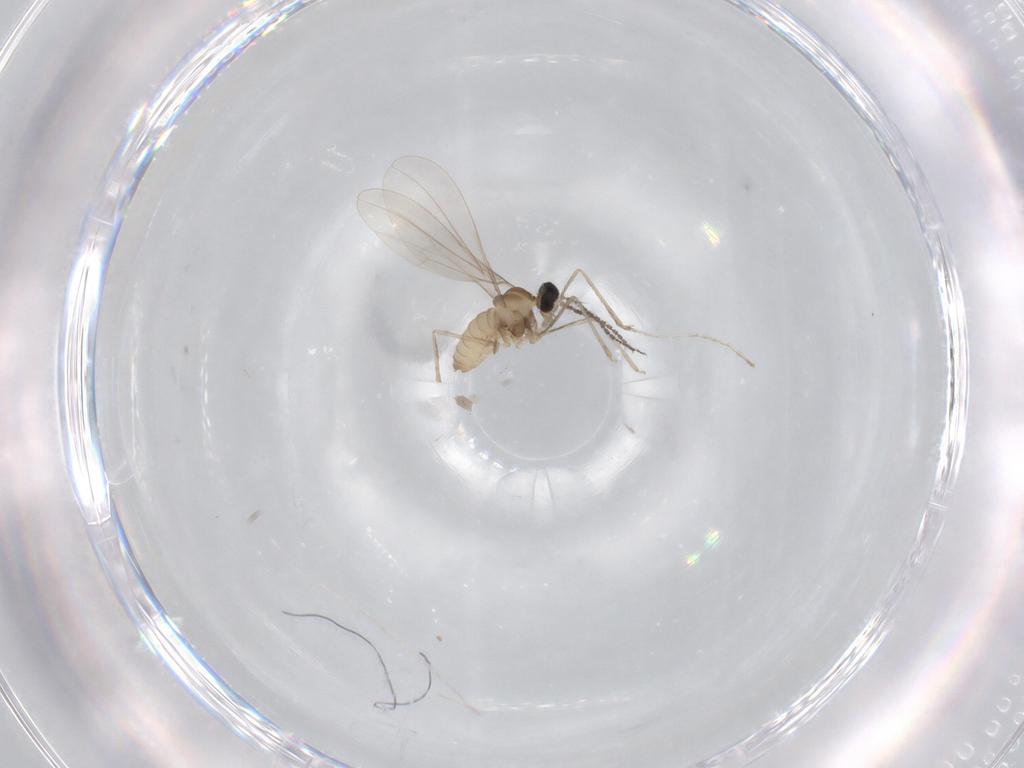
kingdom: Animalia
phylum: Arthropoda
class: Insecta
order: Diptera
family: Cecidomyiidae
